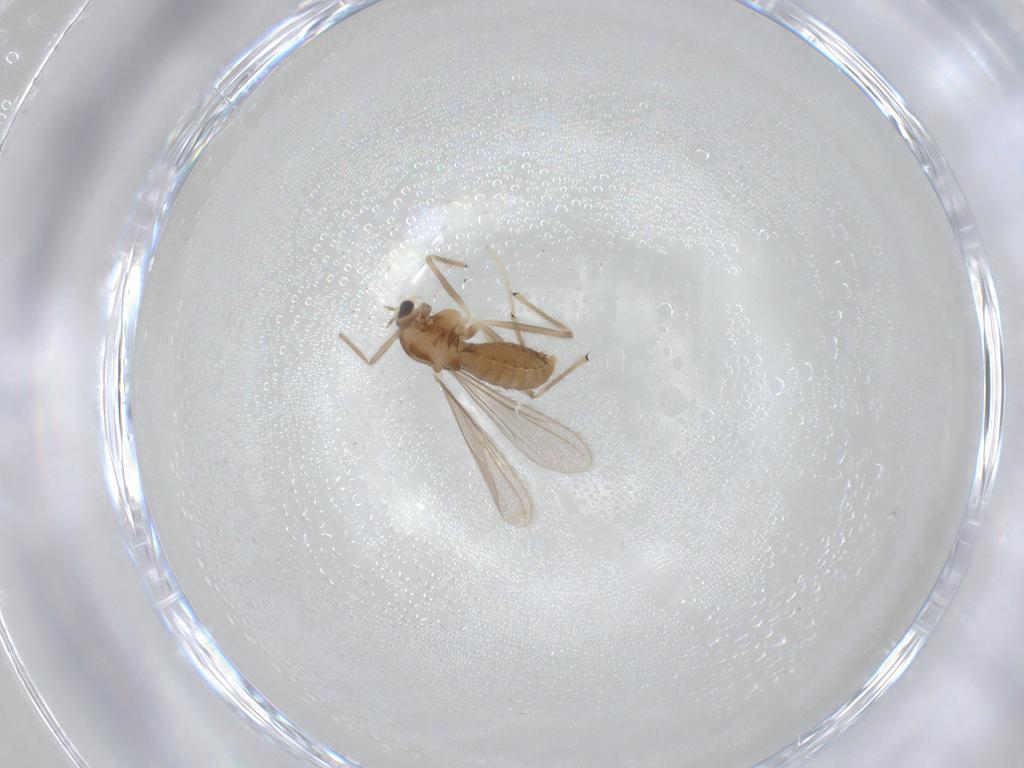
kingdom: Animalia
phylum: Arthropoda
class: Insecta
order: Diptera
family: Chironomidae
